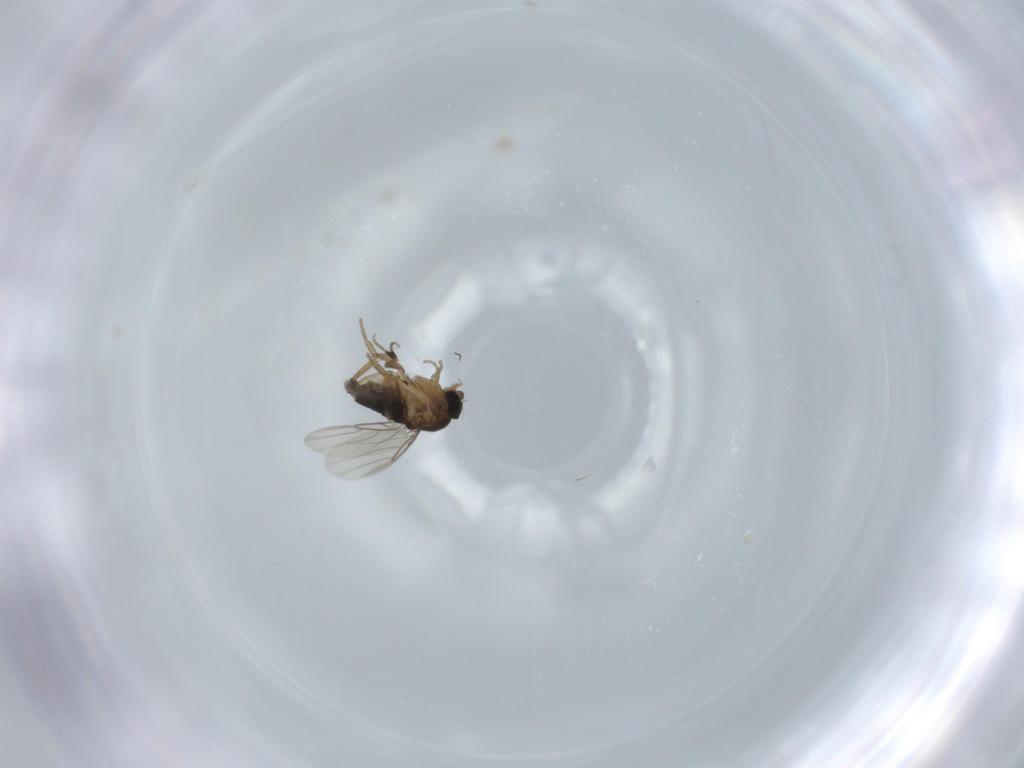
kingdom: Animalia
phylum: Arthropoda
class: Insecta
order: Diptera
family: Phoridae
